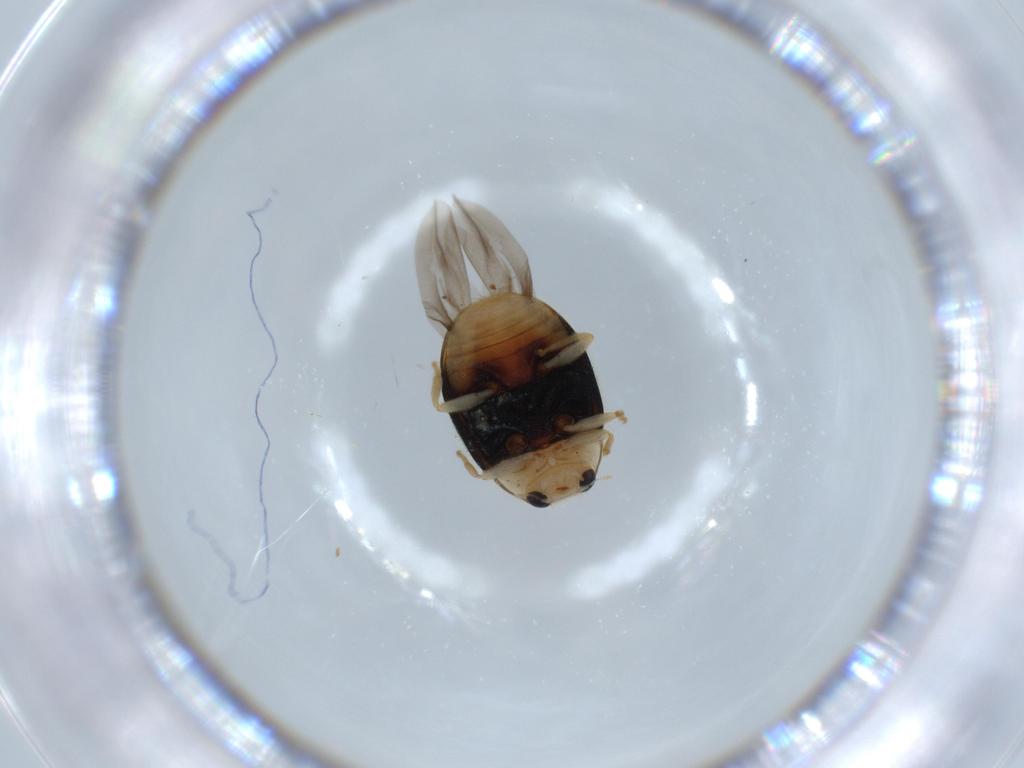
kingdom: Animalia
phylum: Arthropoda
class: Insecta
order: Coleoptera
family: Coccinellidae
